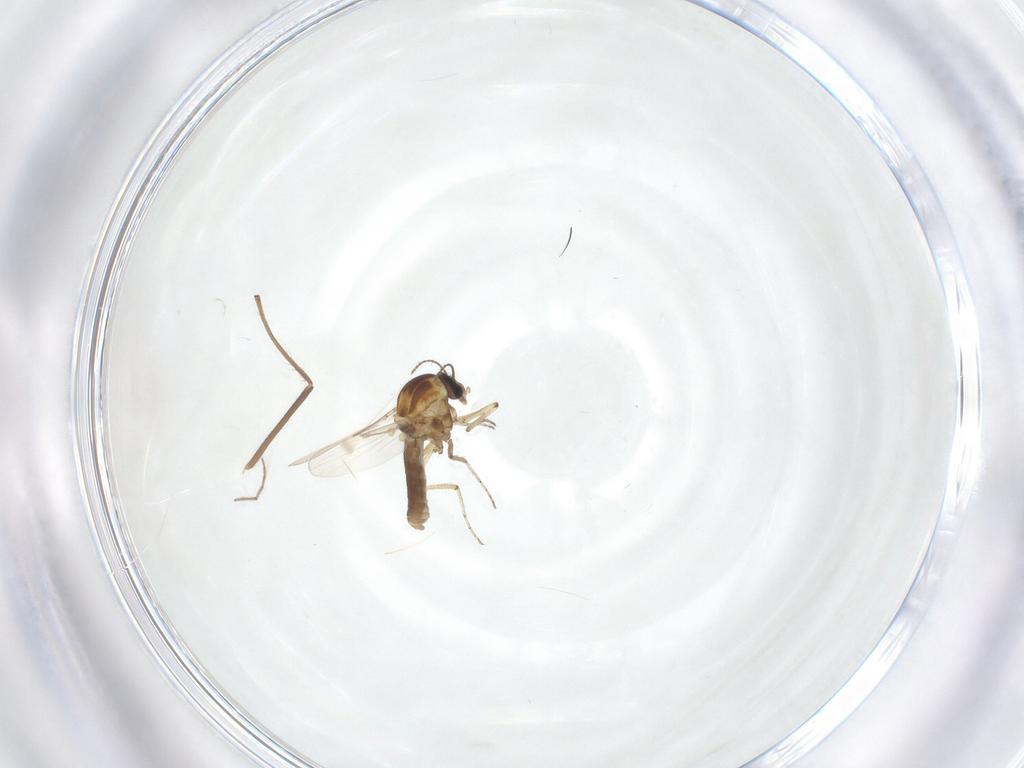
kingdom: Animalia
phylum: Arthropoda
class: Insecta
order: Diptera
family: Ceratopogonidae
